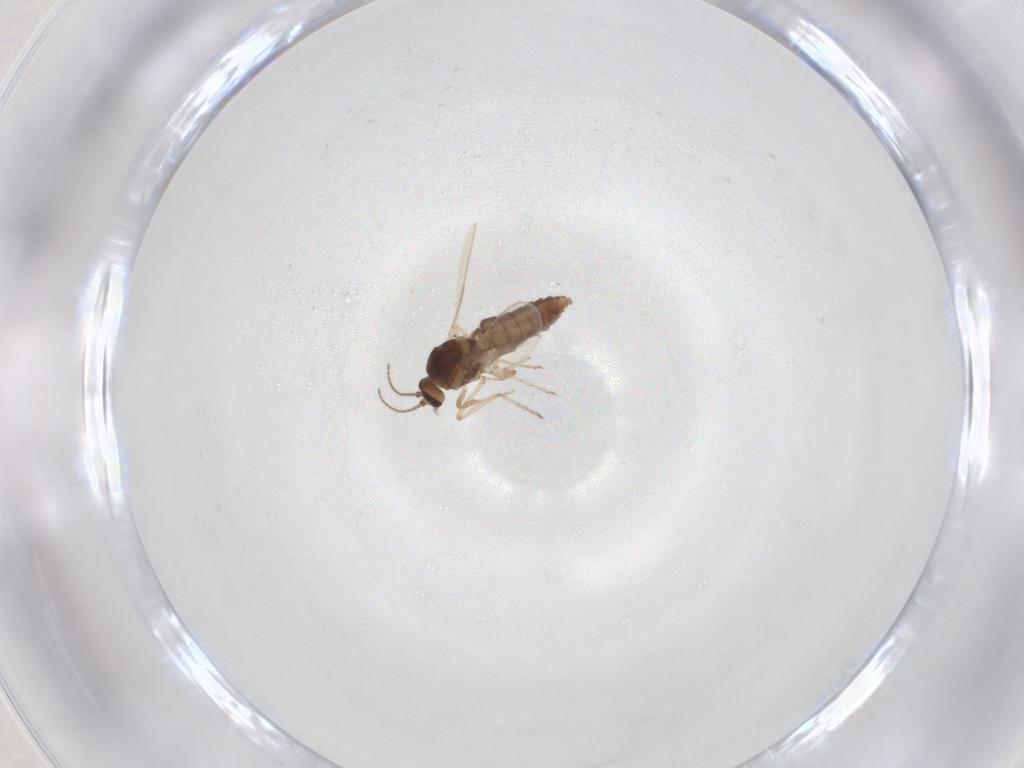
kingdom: Animalia
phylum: Arthropoda
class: Insecta
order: Diptera
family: Ceratopogonidae
